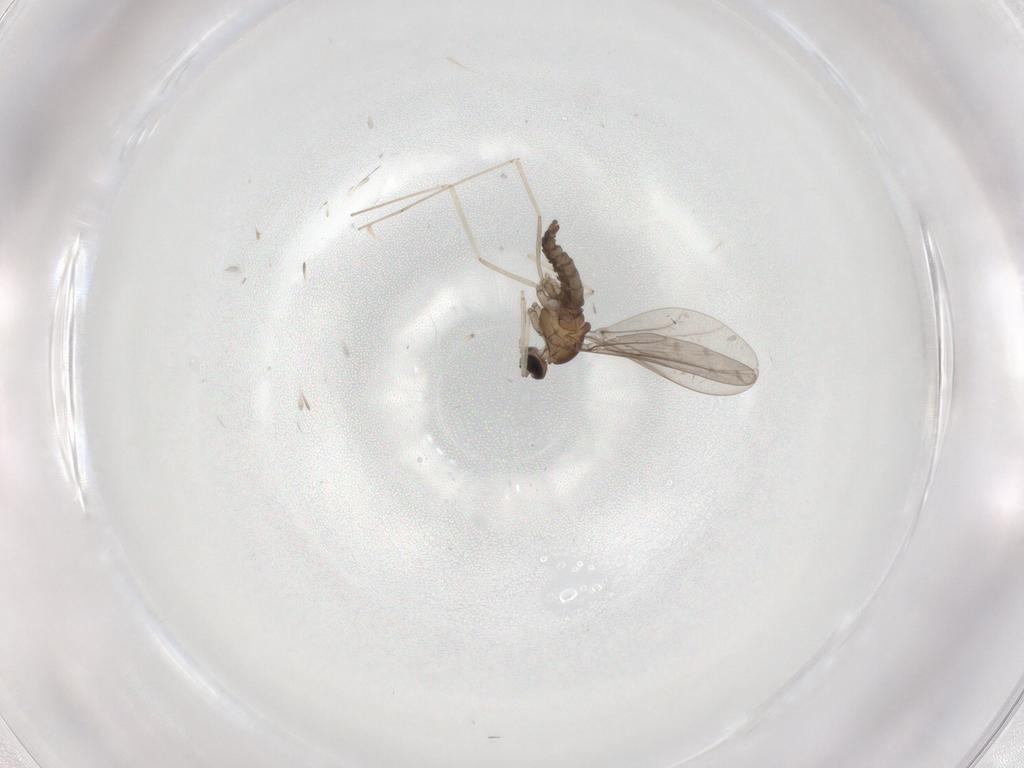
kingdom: Animalia
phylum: Arthropoda
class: Insecta
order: Diptera
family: Cecidomyiidae
